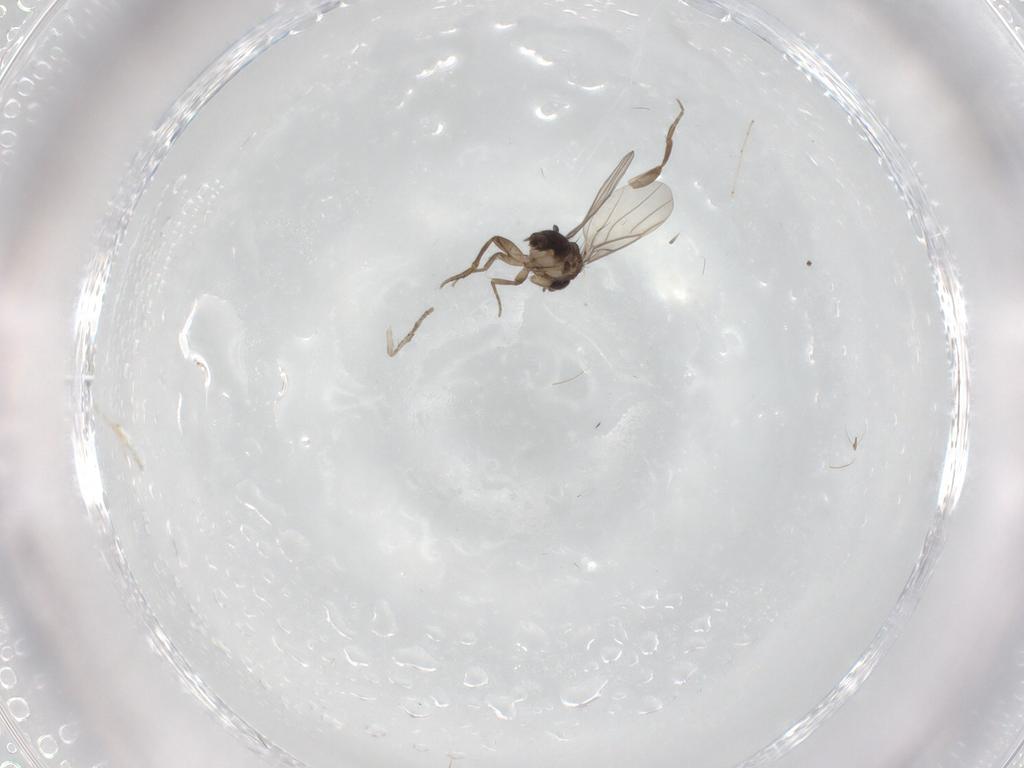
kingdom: Animalia
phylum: Arthropoda
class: Insecta
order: Diptera
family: Psychodidae
